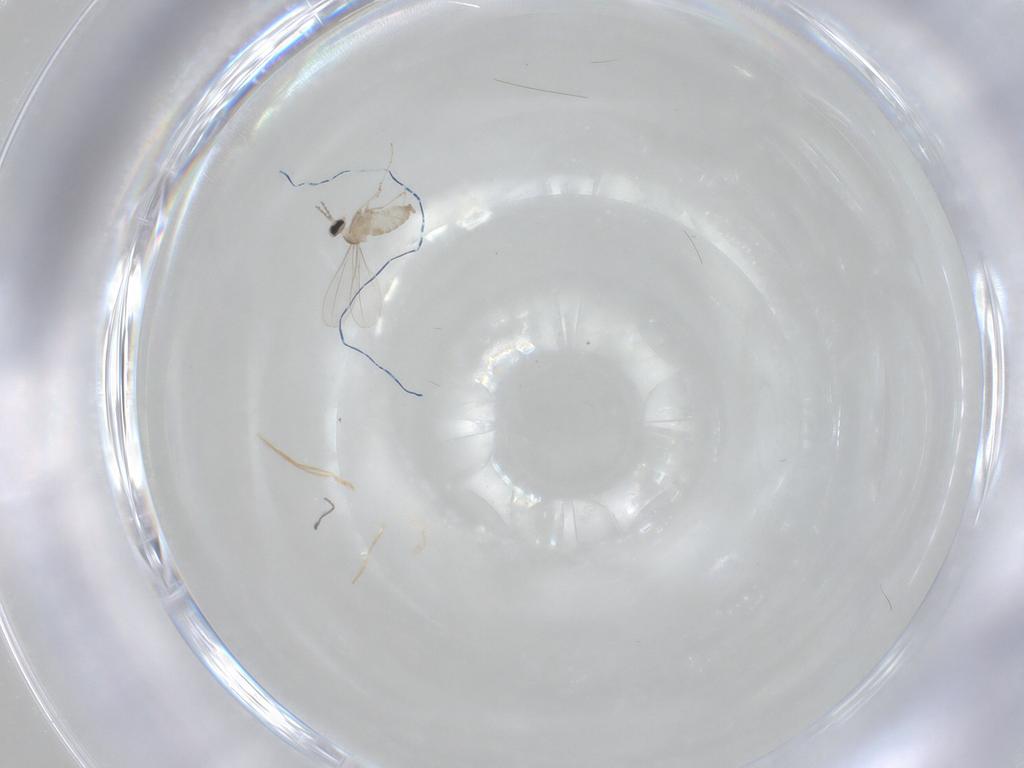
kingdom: Animalia
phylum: Arthropoda
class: Insecta
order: Diptera
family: Cecidomyiidae
